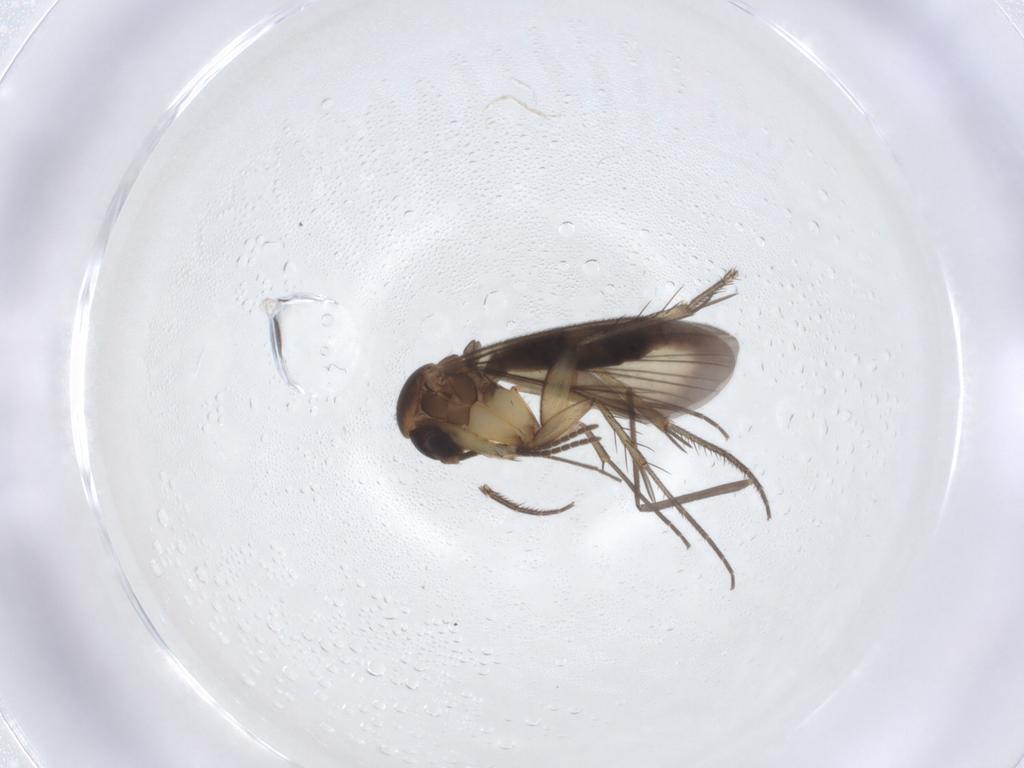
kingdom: Animalia
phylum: Arthropoda
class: Insecta
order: Diptera
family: Mycetophilidae
